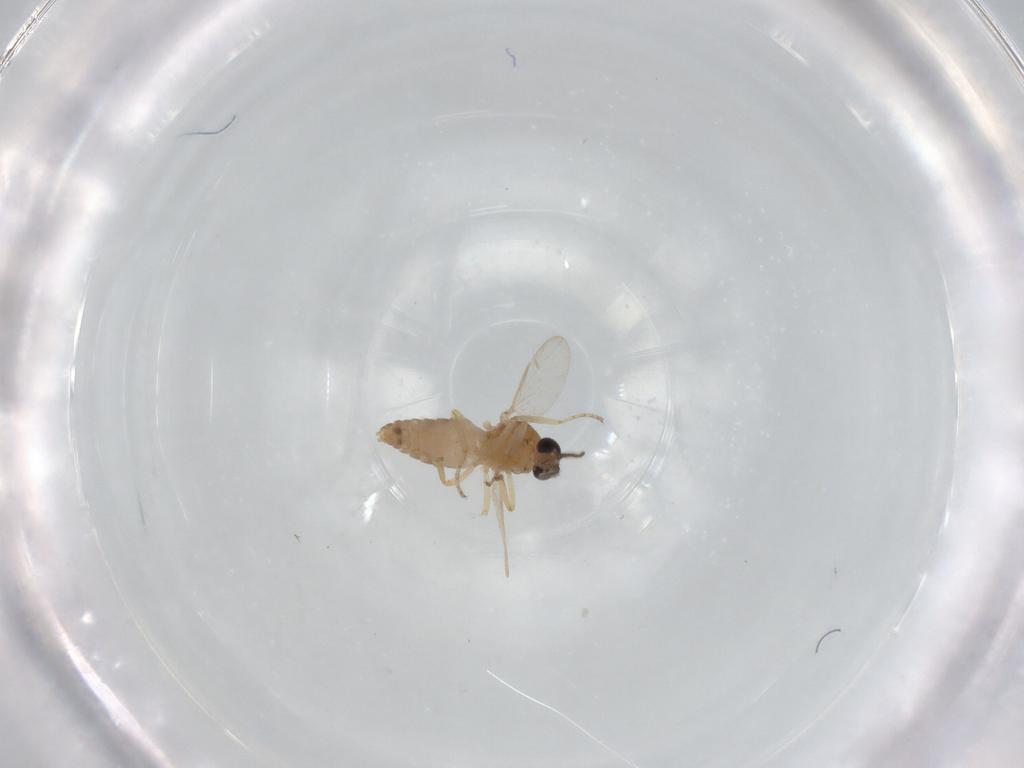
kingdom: Animalia
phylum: Arthropoda
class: Insecta
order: Diptera
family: Ceratopogonidae
